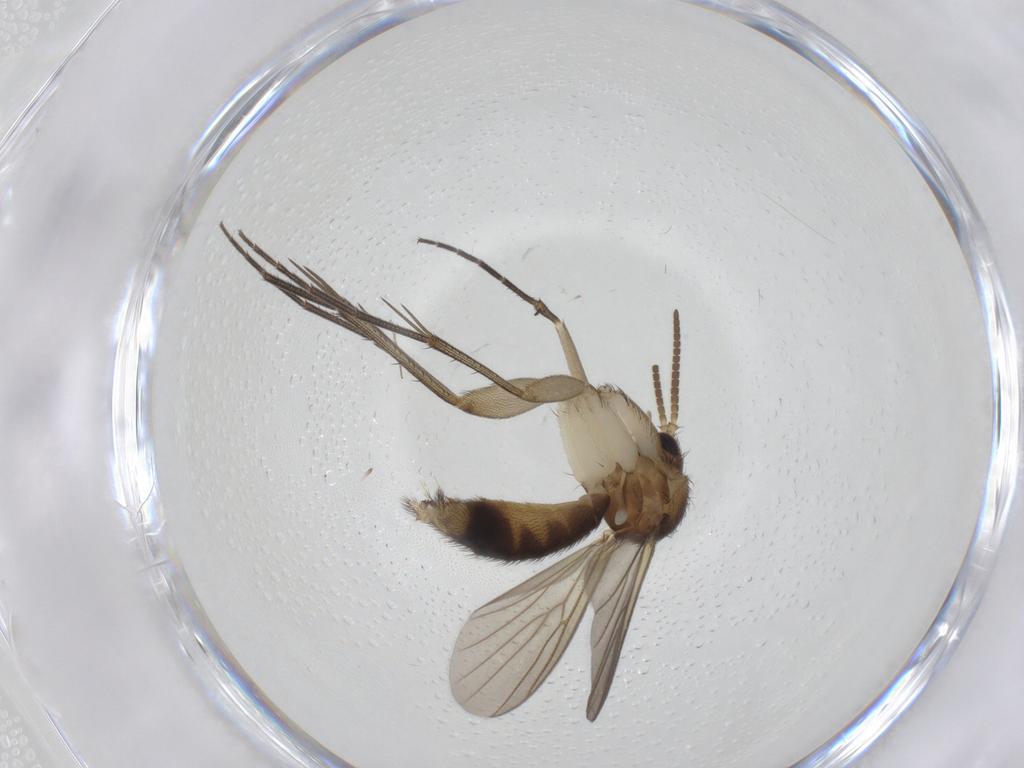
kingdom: Animalia
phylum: Arthropoda
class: Insecta
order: Diptera
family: Mycetophilidae
